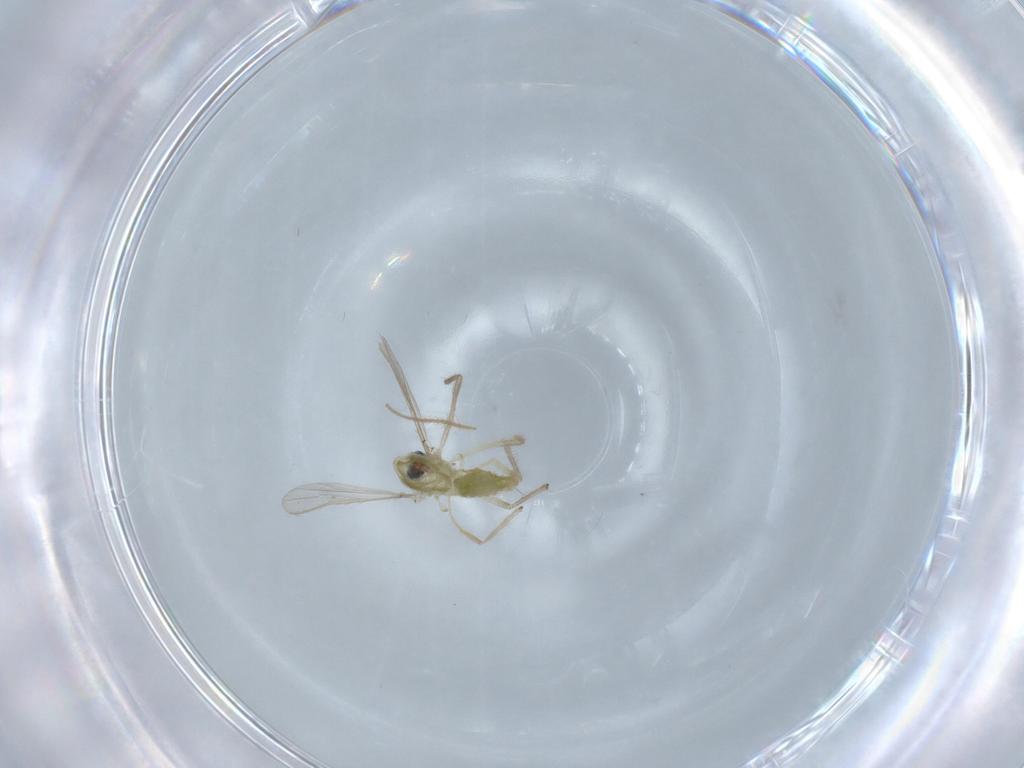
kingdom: Animalia
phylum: Arthropoda
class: Insecta
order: Diptera
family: Chironomidae
